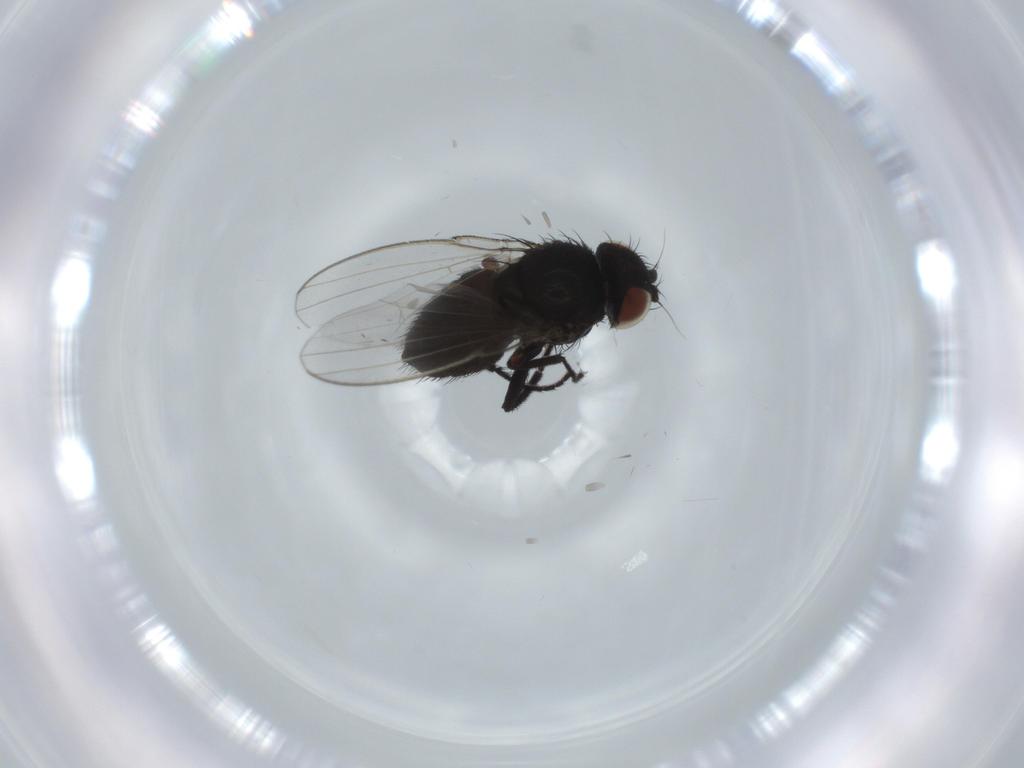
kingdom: Animalia
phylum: Arthropoda
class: Insecta
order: Diptera
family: Milichiidae
